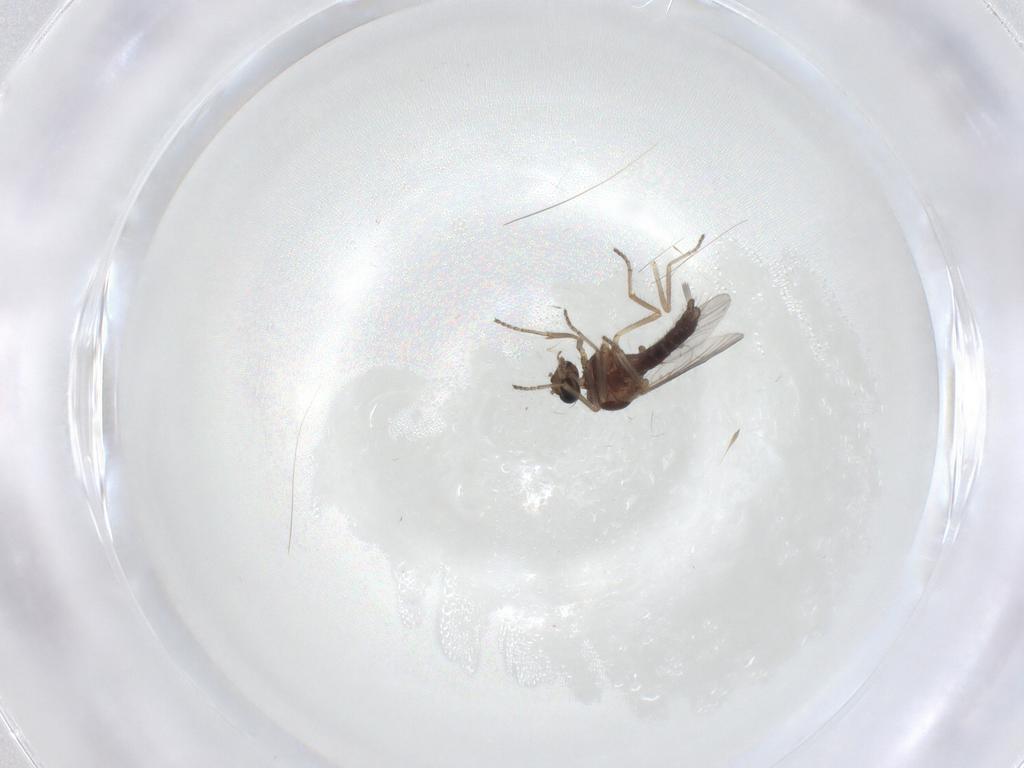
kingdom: Animalia
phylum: Arthropoda
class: Insecta
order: Diptera
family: Ceratopogonidae
